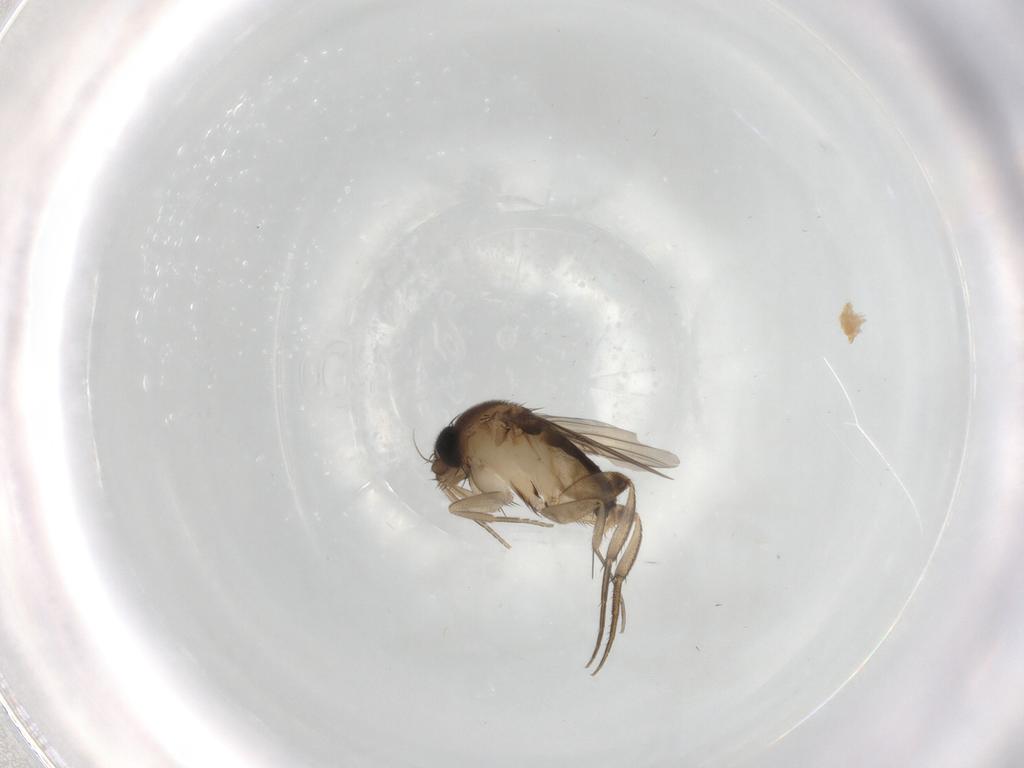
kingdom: Animalia
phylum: Arthropoda
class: Insecta
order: Diptera
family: Phoridae
